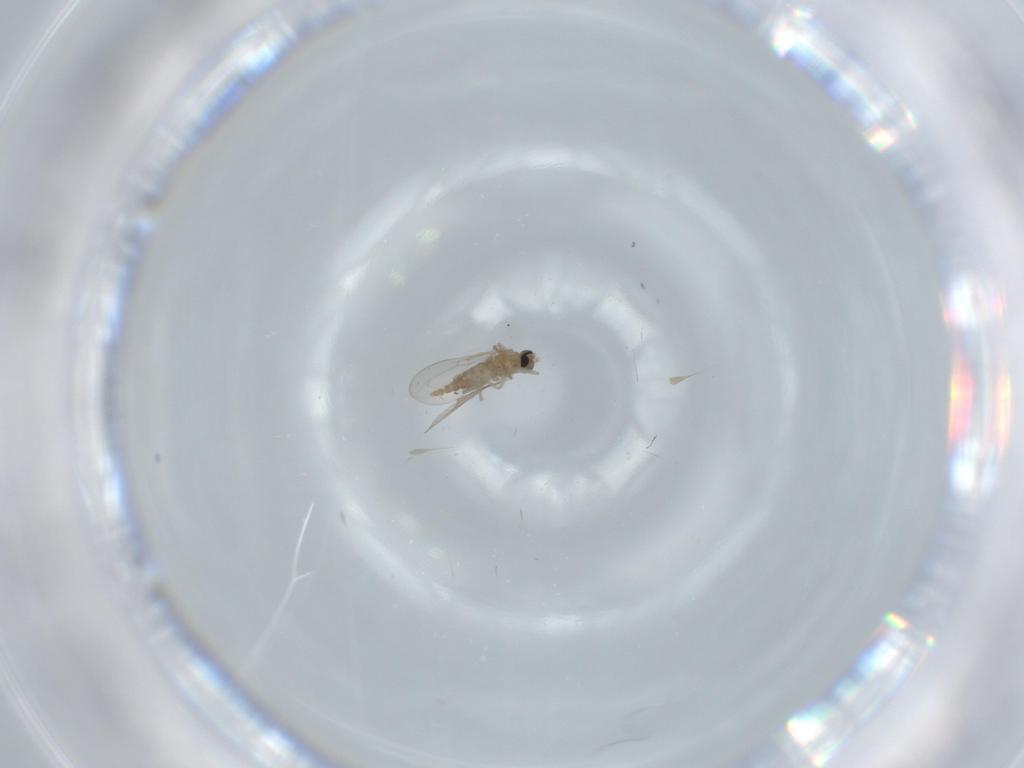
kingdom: Animalia
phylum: Arthropoda
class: Insecta
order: Diptera
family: Cecidomyiidae
